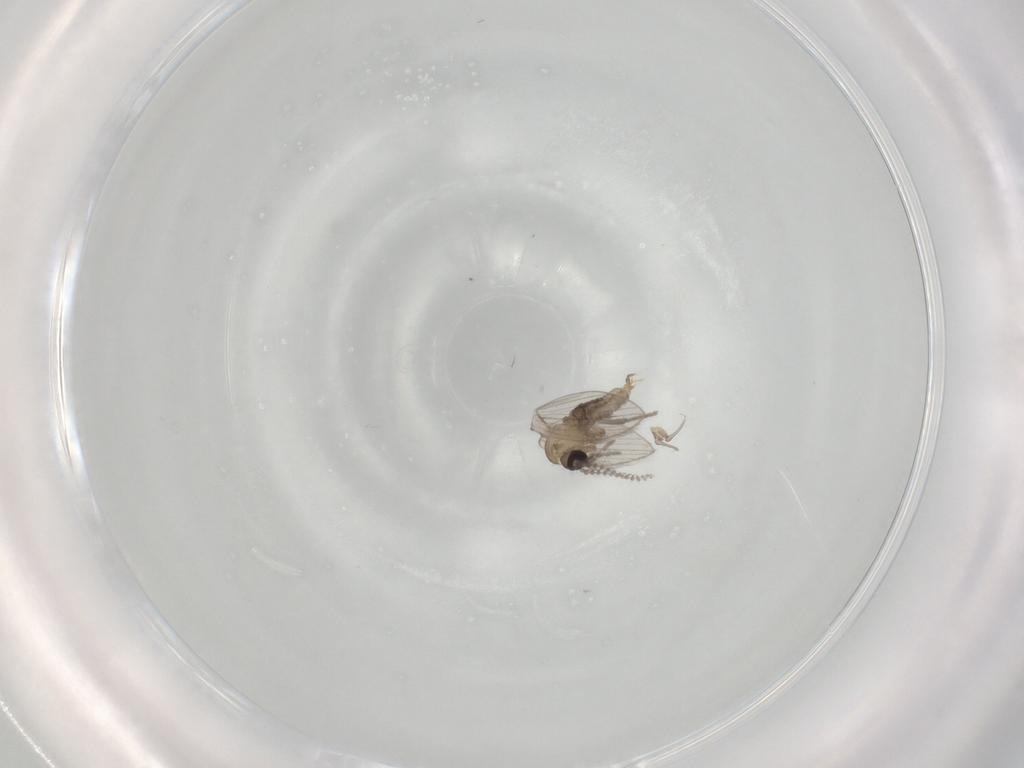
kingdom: Animalia
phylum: Arthropoda
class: Insecta
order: Diptera
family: Psychodidae
